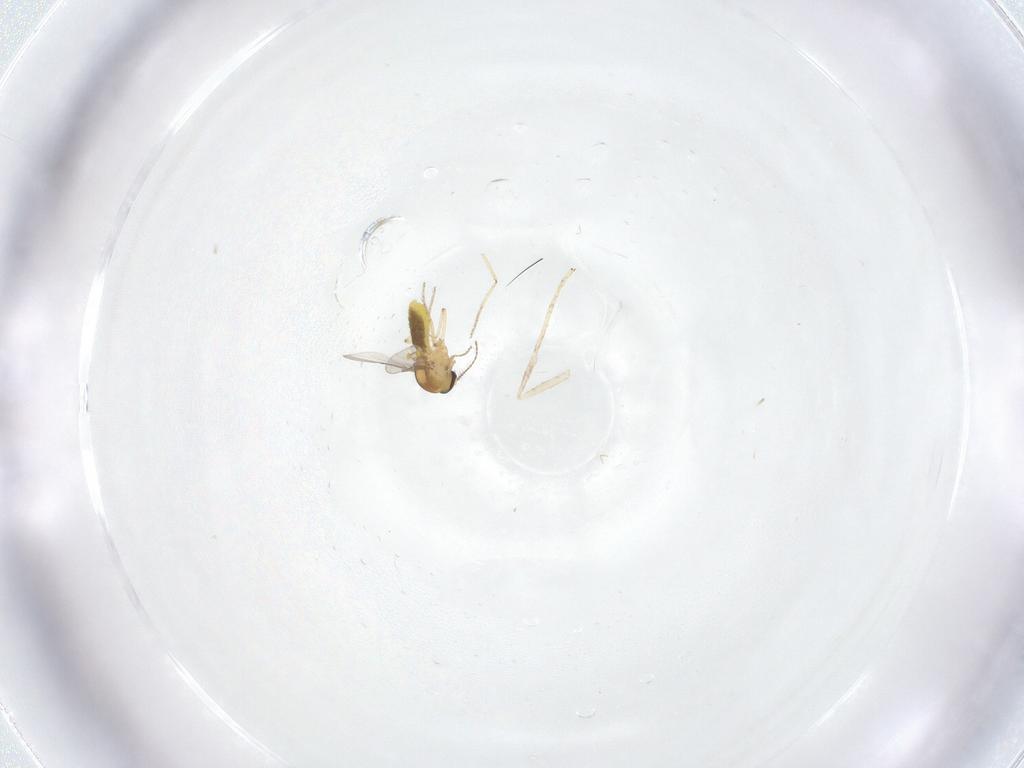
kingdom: Animalia
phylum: Arthropoda
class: Insecta
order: Diptera
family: Ceratopogonidae
